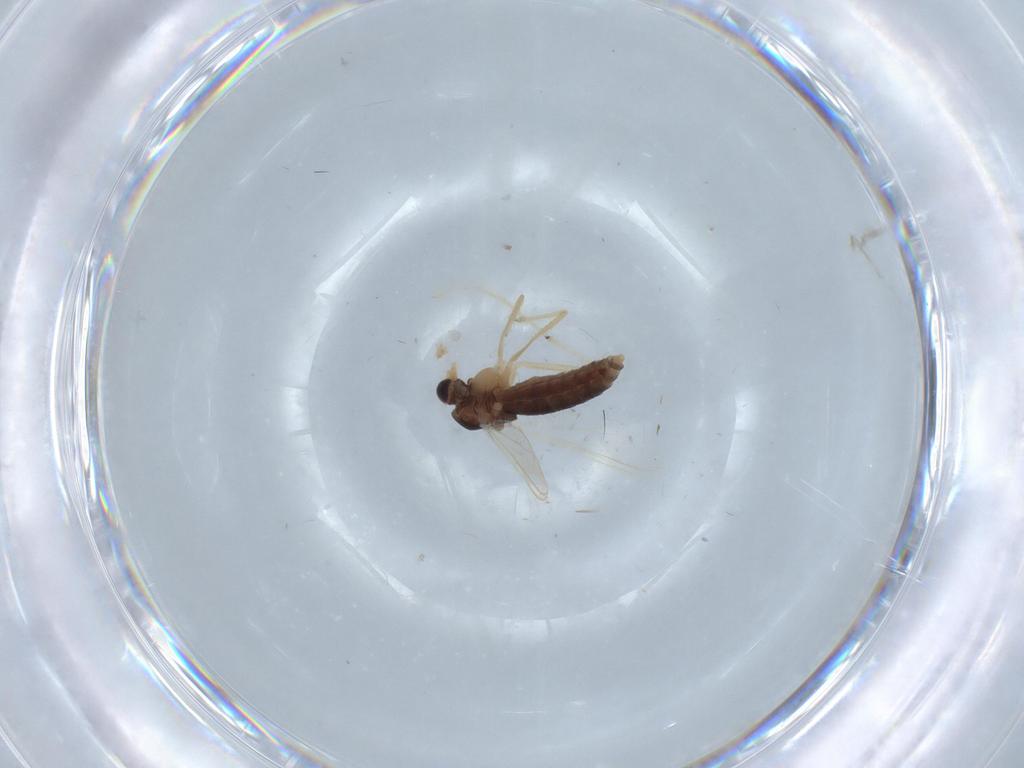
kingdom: Animalia
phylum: Arthropoda
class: Insecta
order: Diptera
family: Chironomidae
